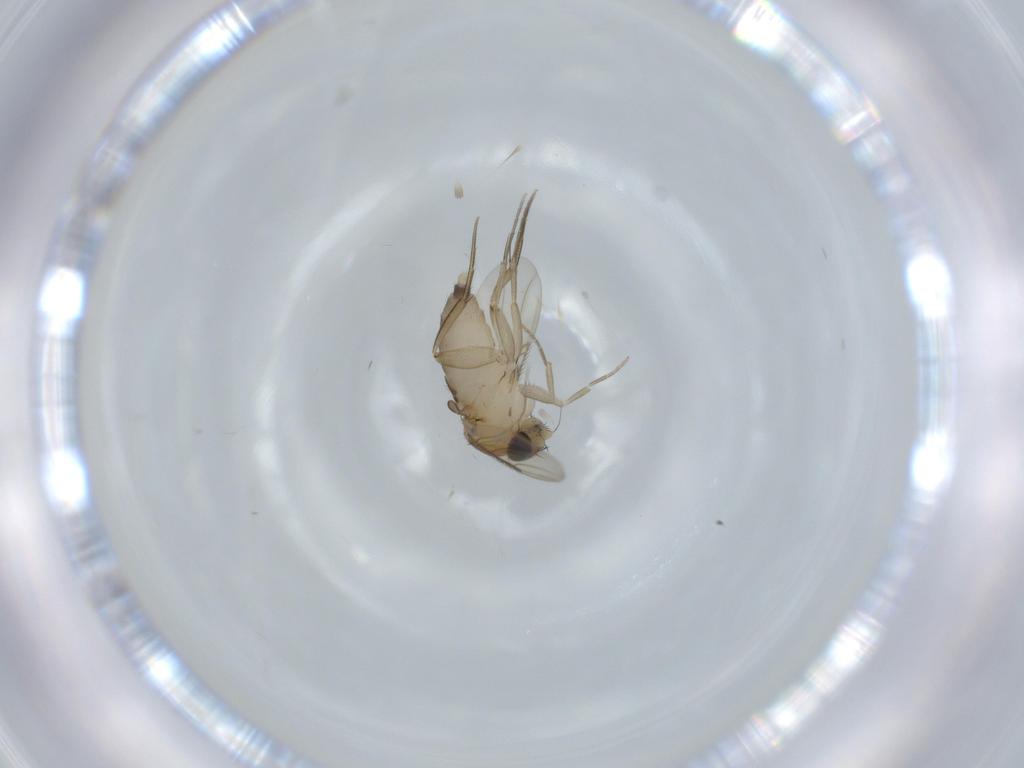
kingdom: Animalia
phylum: Arthropoda
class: Insecta
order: Diptera
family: Phoridae
